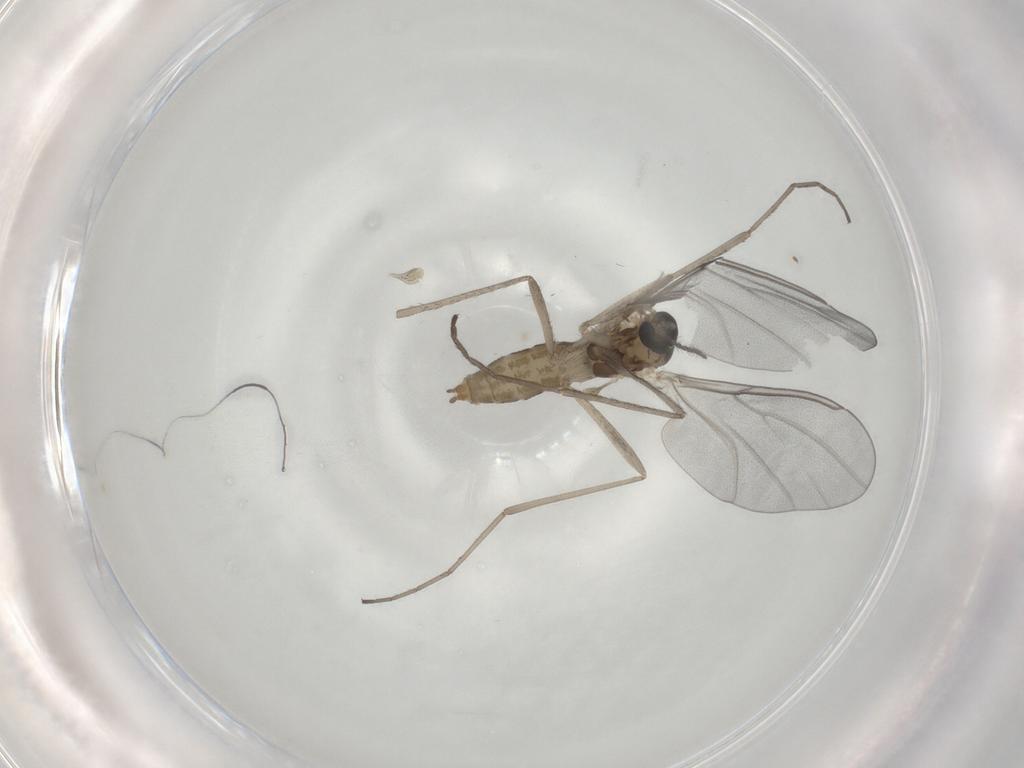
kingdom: Animalia
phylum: Arthropoda
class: Insecta
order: Diptera
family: Cecidomyiidae
